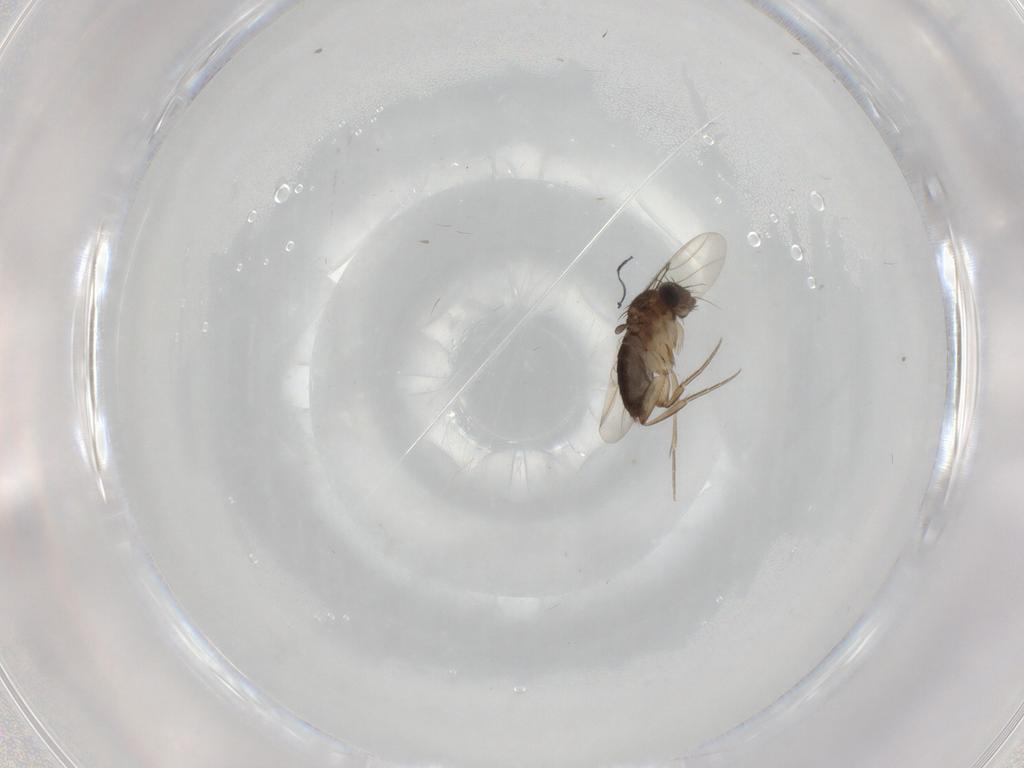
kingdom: Animalia
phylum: Arthropoda
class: Insecta
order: Diptera
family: Phoridae
